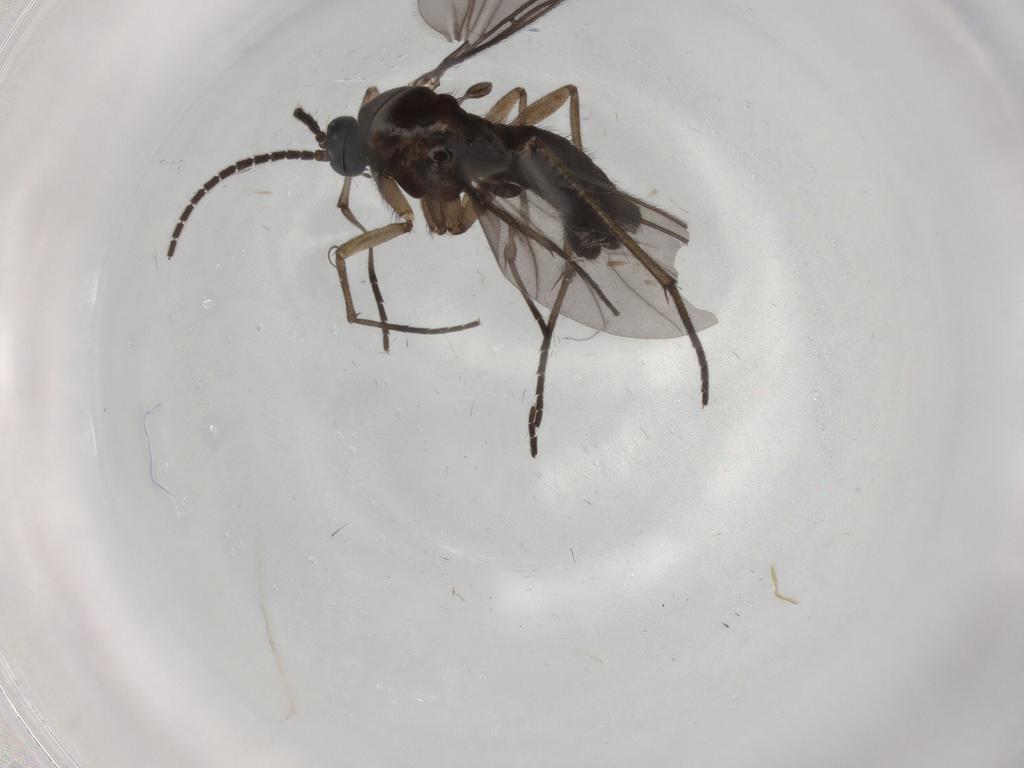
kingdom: Animalia
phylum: Arthropoda
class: Insecta
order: Diptera
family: Sciaridae
